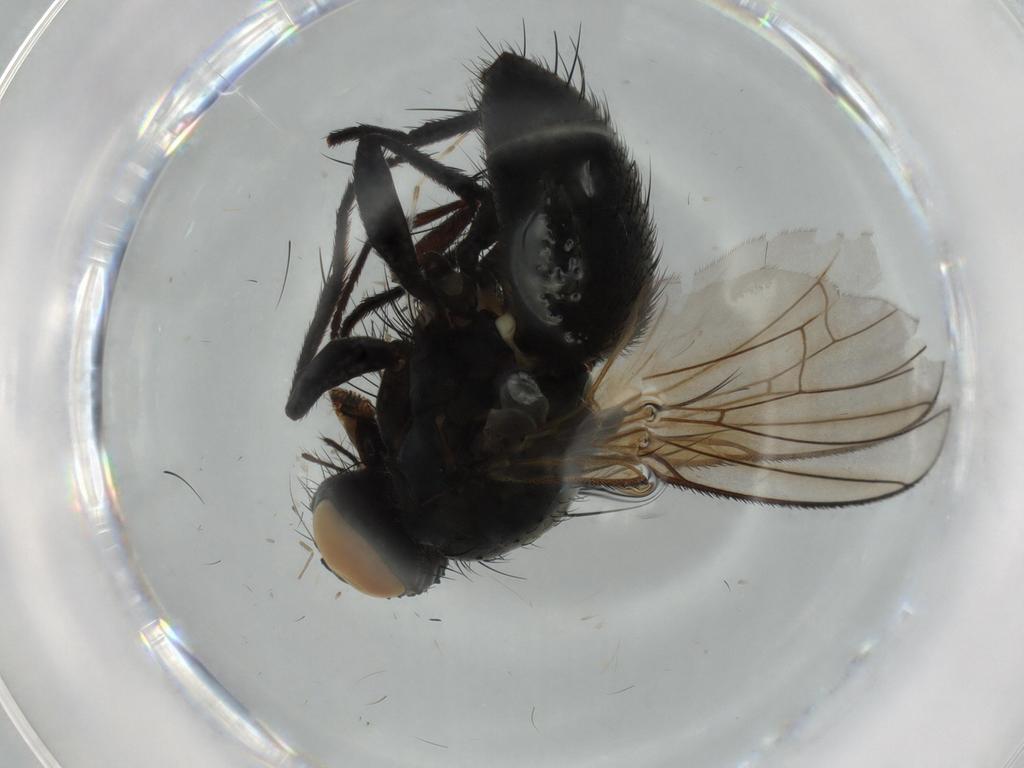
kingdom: Animalia
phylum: Arthropoda
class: Insecta
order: Diptera
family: Muscidae
